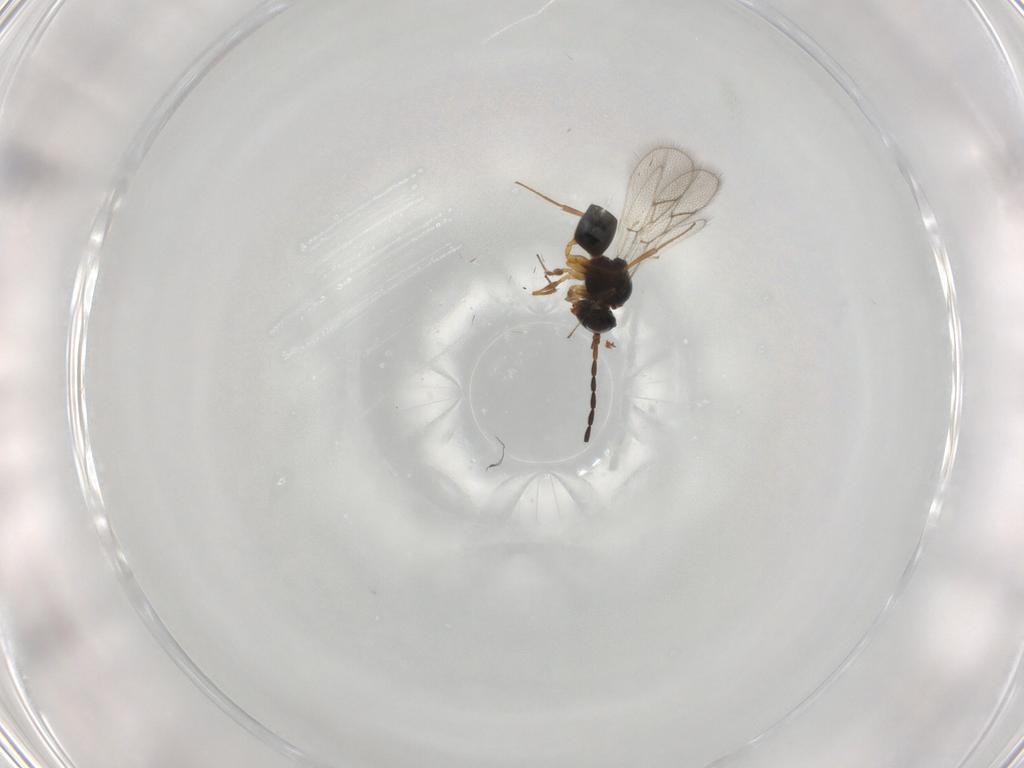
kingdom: Animalia
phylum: Arthropoda
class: Insecta
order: Hymenoptera
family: Figitidae
